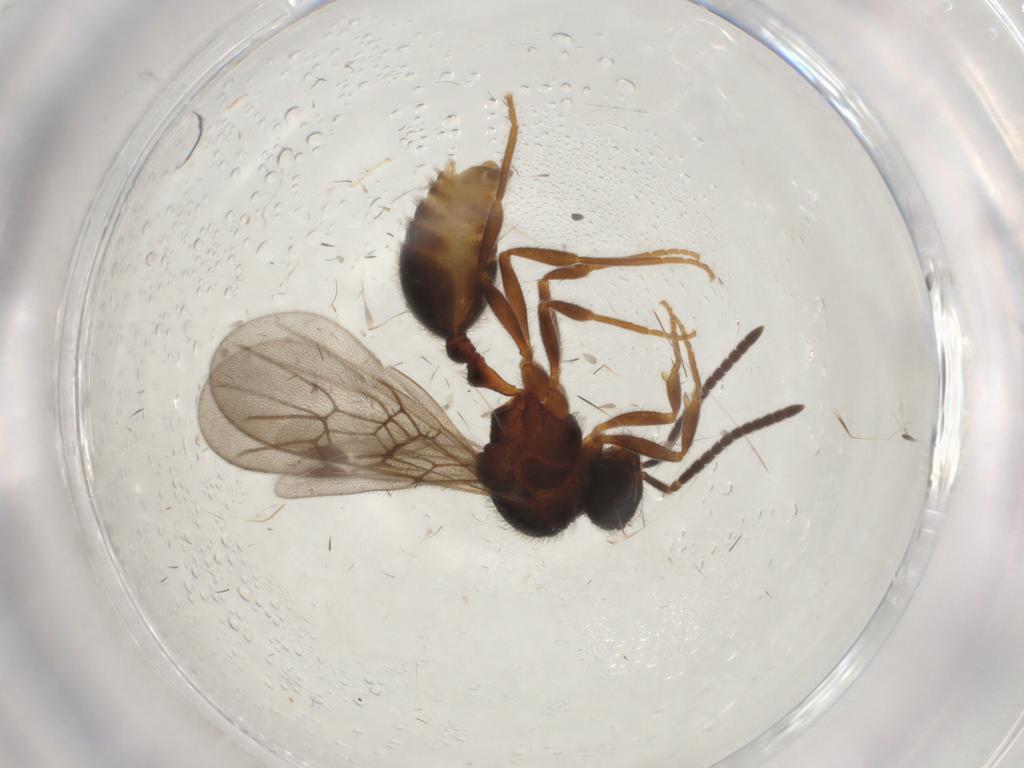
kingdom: Animalia
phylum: Arthropoda
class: Insecta
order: Hymenoptera
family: Formicidae
